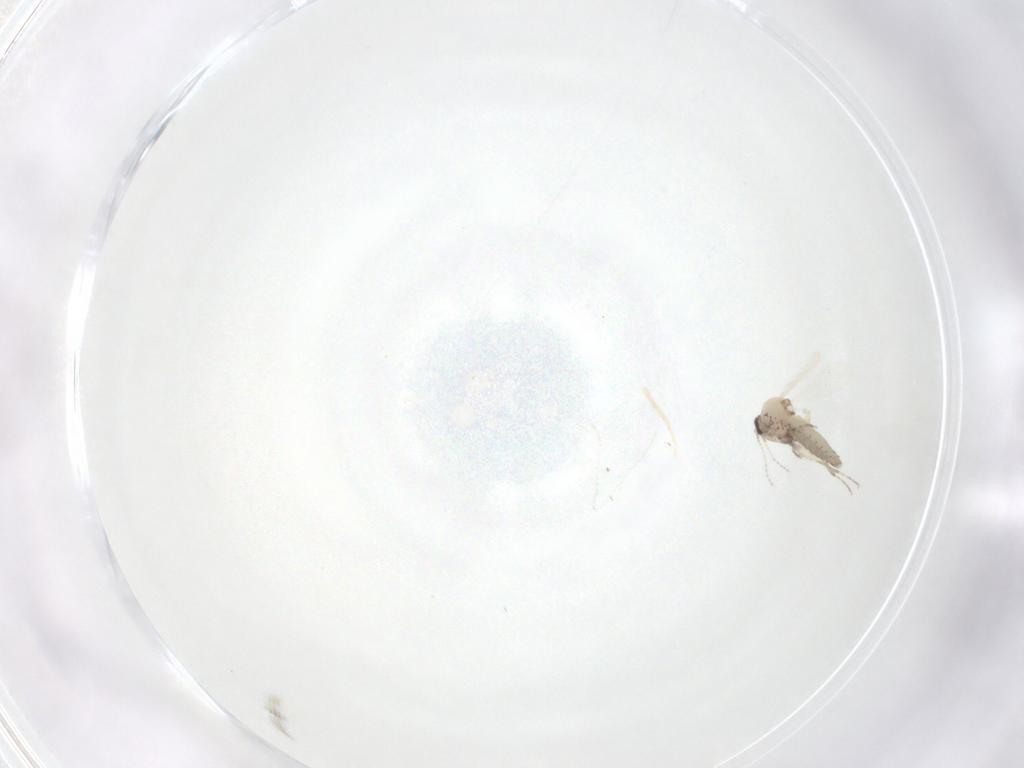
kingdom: Animalia
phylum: Arthropoda
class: Insecta
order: Diptera
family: Ceratopogonidae
